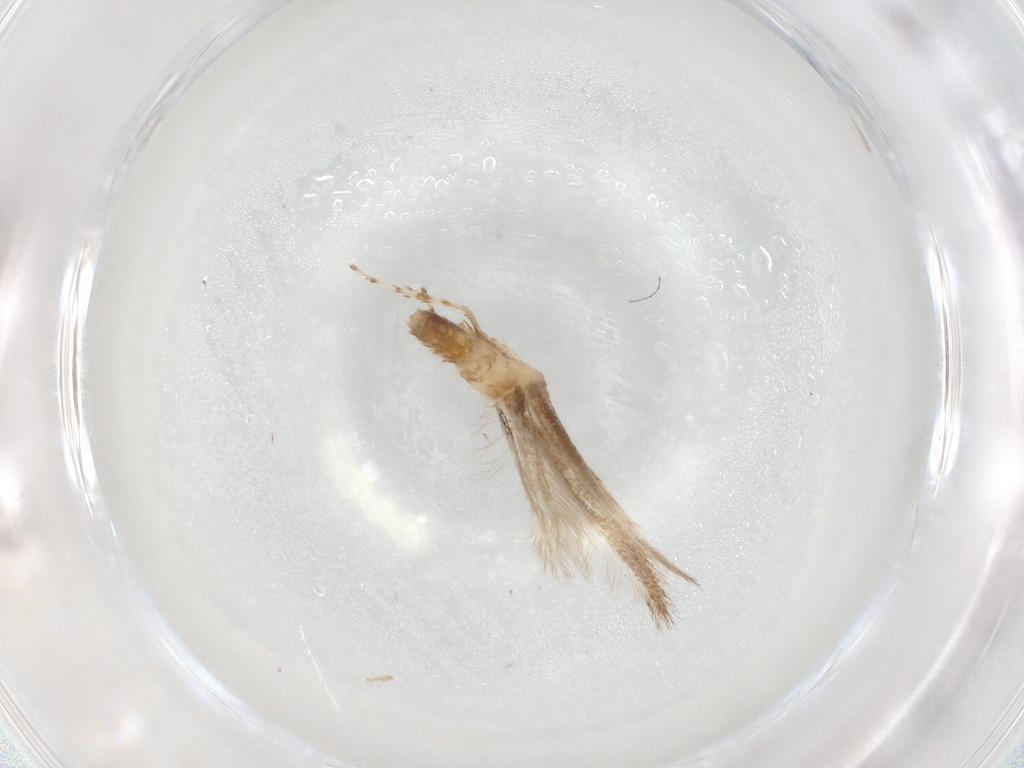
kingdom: Animalia
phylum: Arthropoda
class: Insecta
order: Lepidoptera
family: Gracillariidae
